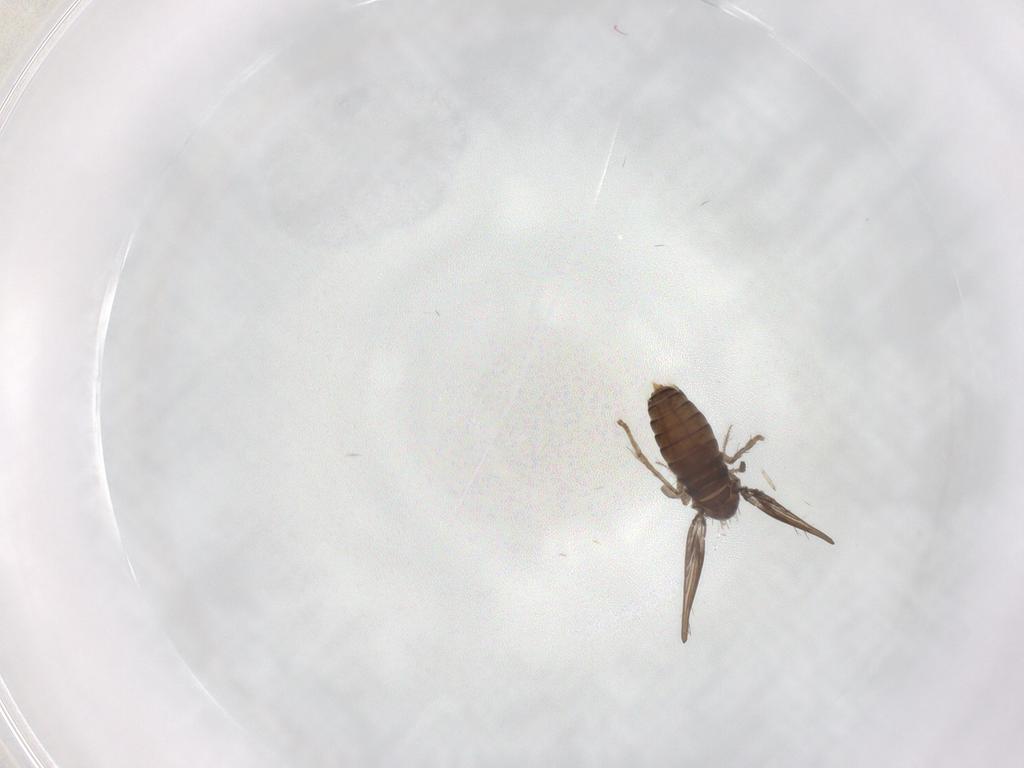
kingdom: Animalia
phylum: Arthropoda
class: Insecta
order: Diptera
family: Psychodidae
